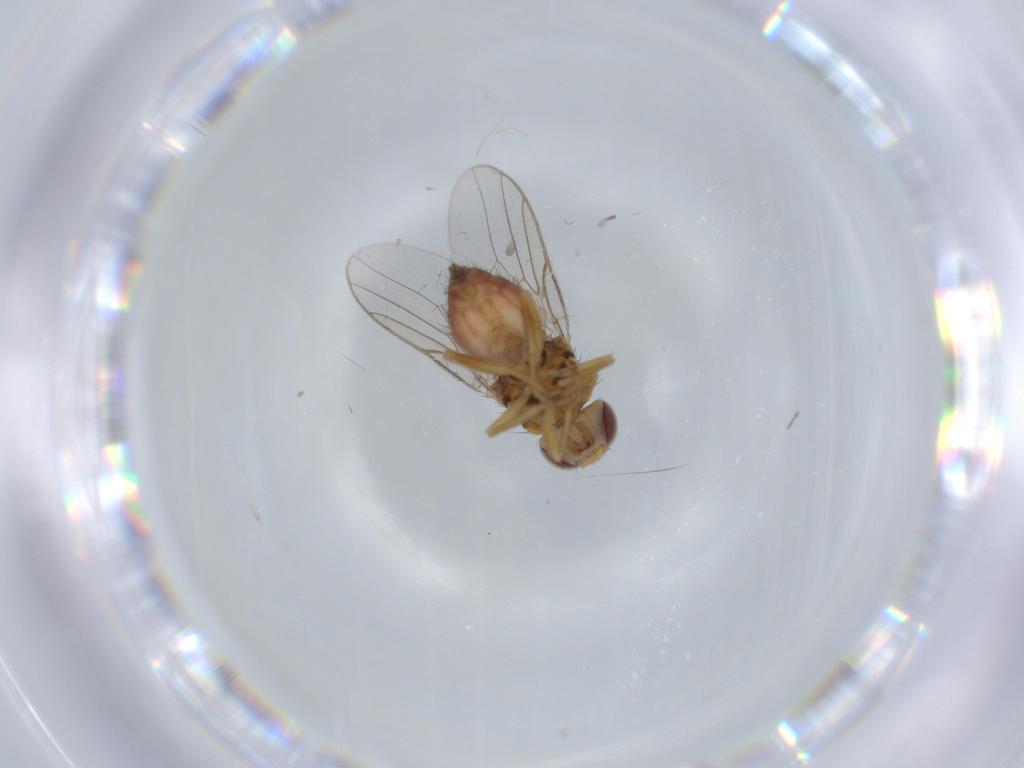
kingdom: Animalia
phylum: Arthropoda
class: Insecta
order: Diptera
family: Chloropidae
